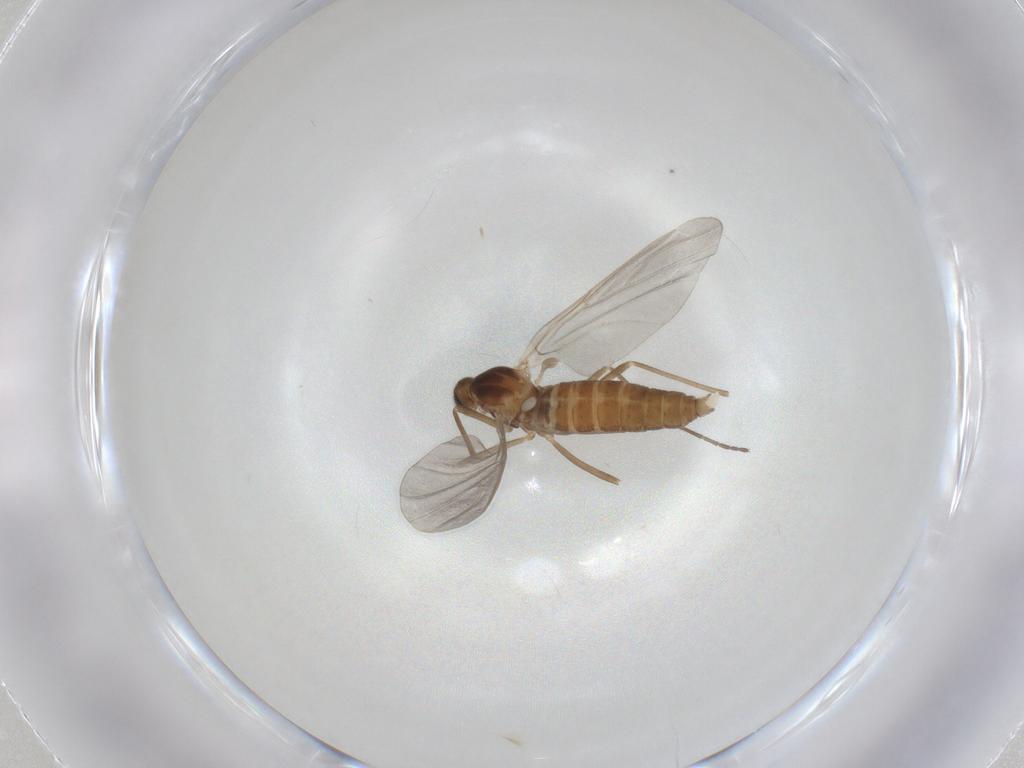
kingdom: Animalia
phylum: Arthropoda
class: Insecta
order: Diptera
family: Cecidomyiidae
